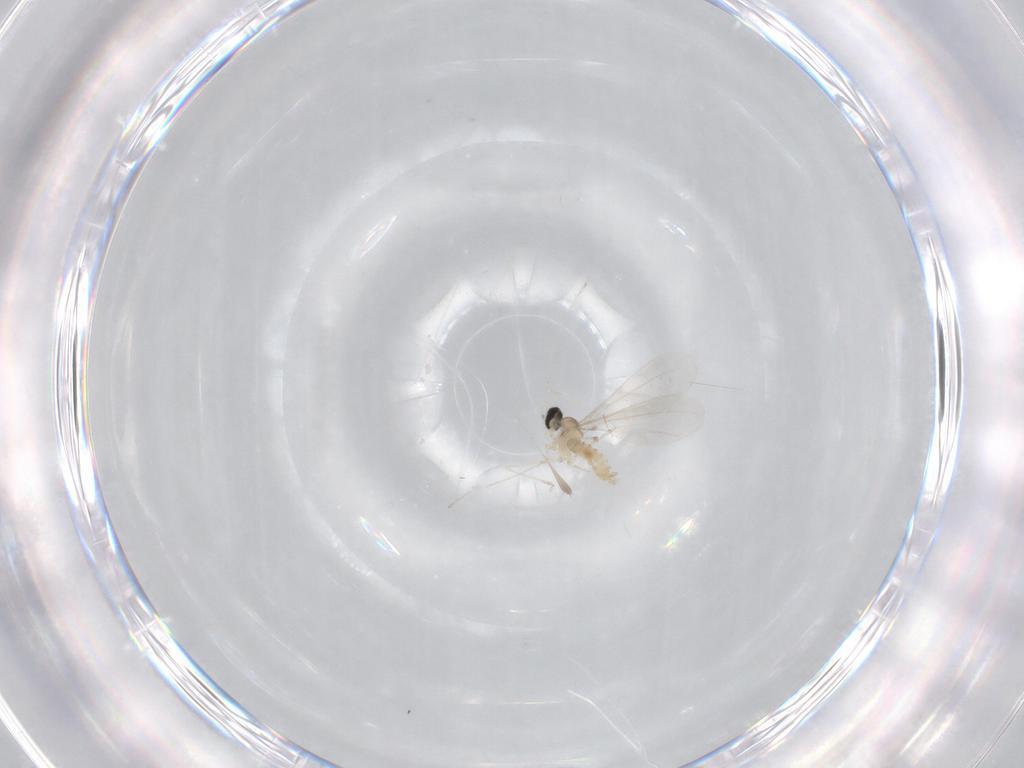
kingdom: Animalia
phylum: Arthropoda
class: Insecta
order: Diptera
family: Cecidomyiidae
